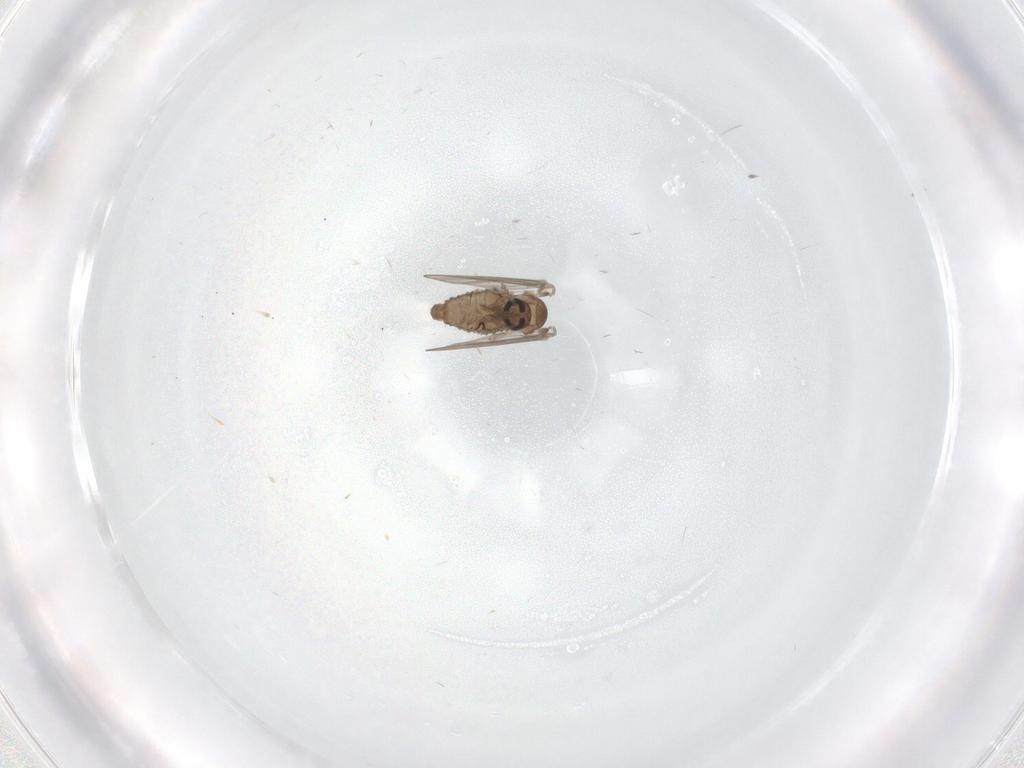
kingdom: Animalia
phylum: Arthropoda
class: Insecta
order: Diptera
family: Psychodidae
